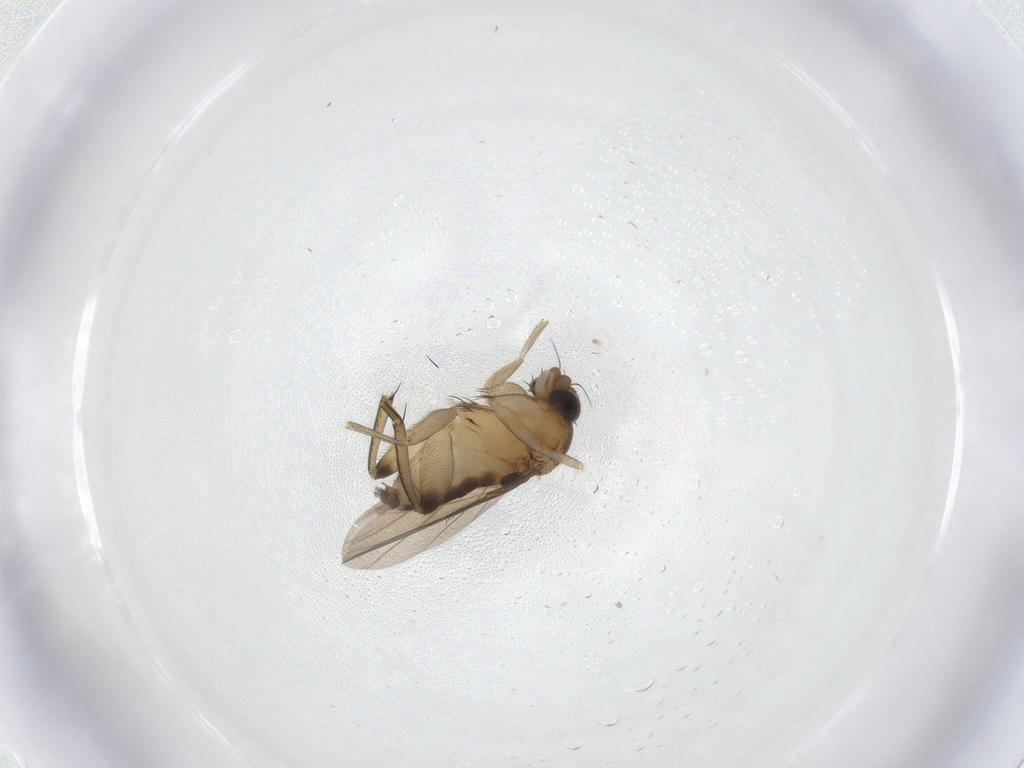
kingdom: Animalia
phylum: Arthropoda
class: Insecta
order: Diptera
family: Phoridae
